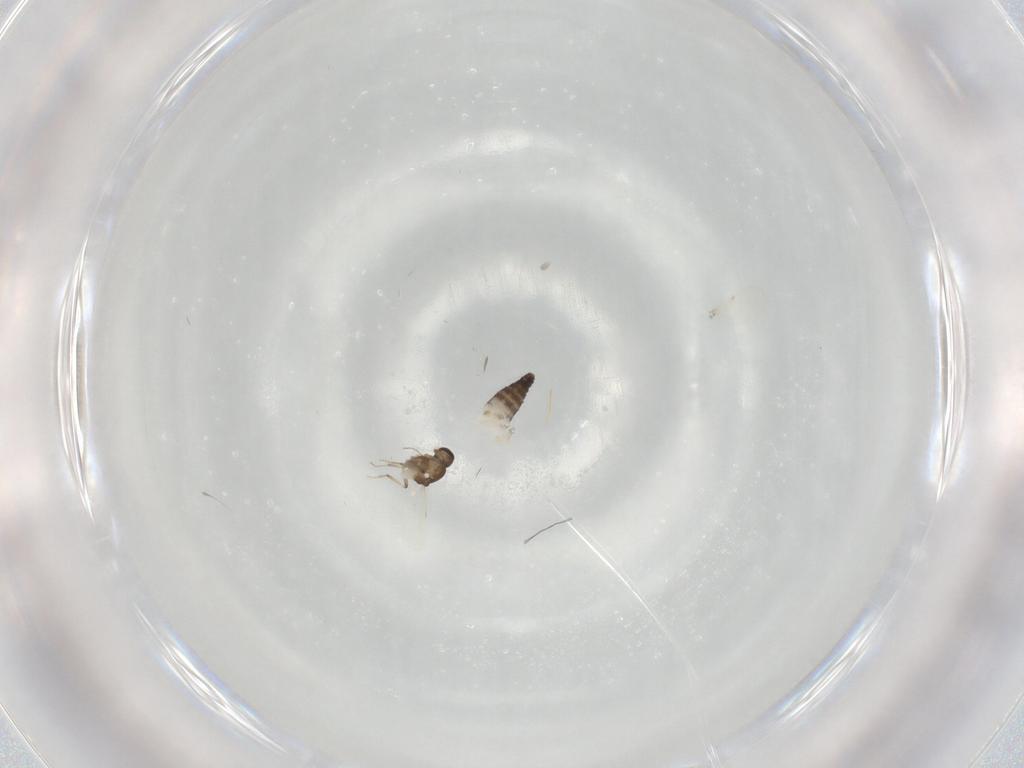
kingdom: Animalia
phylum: Arthropoda
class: Insecta
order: Diptera
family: Ceratopogonidae
